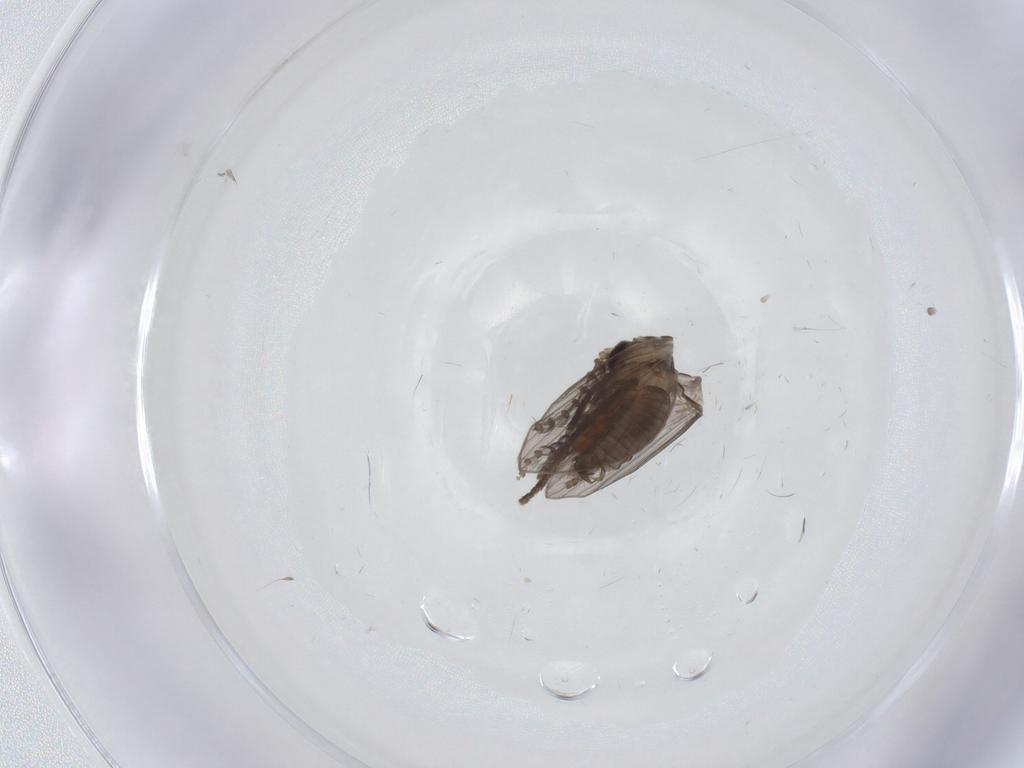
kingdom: Animalia
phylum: Arthropoda
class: Insecta
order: Diptera
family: Psychodidae
